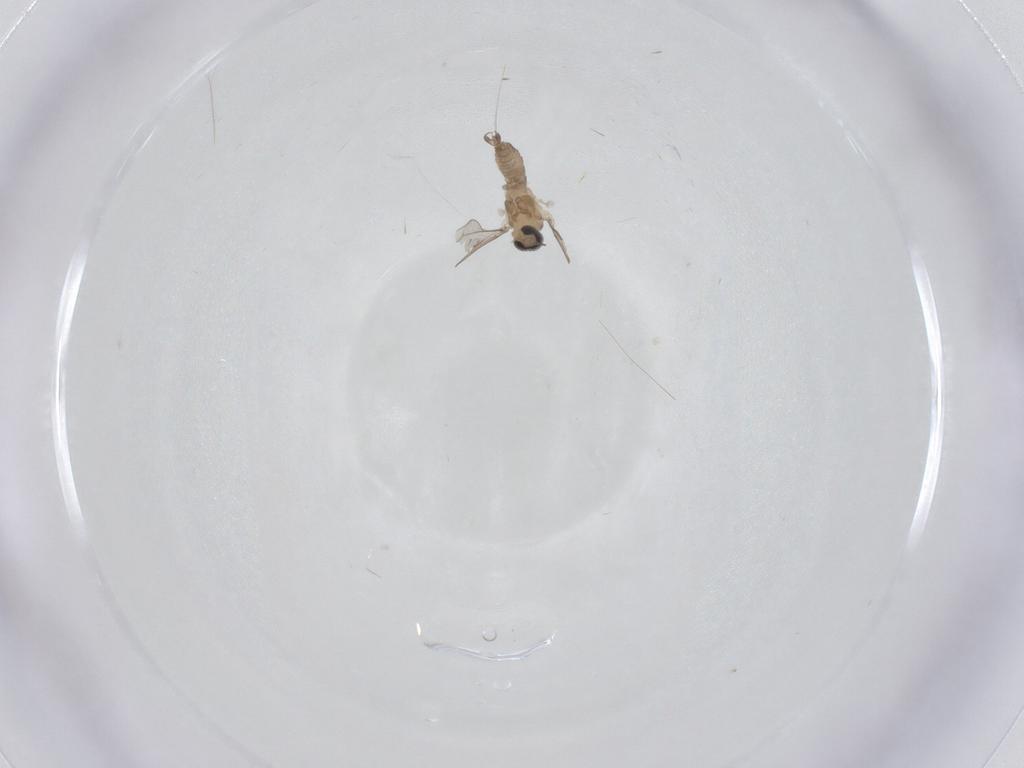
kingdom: Animalia
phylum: Arthropoda
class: Insecta
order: Diptera
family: Cecidomyiidae
